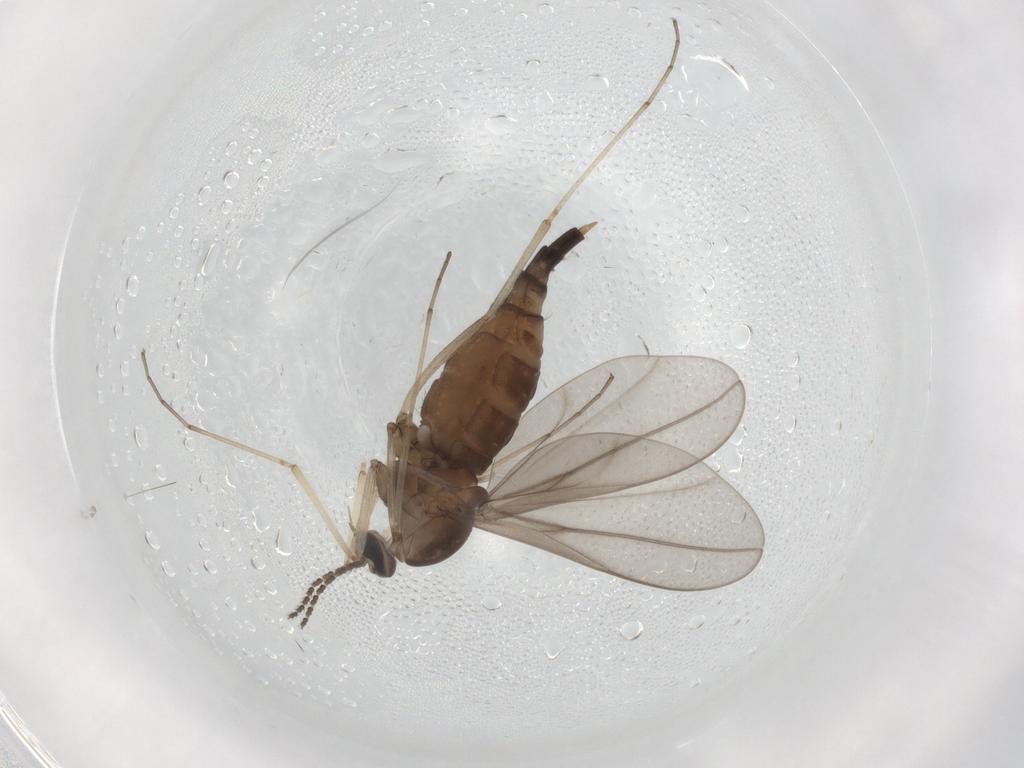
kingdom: Animalia
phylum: Arthropoda
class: Insecta
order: Diptera
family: Cecidomyiidae
